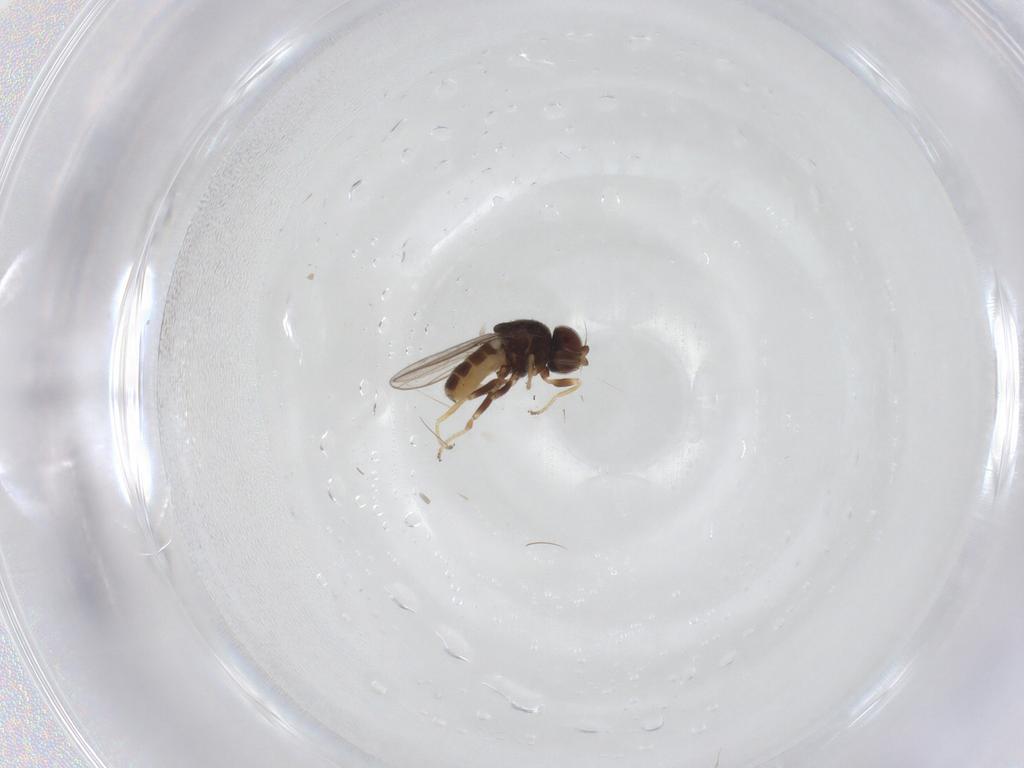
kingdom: Animalia
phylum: Arthropoda
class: Insecta
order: Diptera
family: Chloropidae
